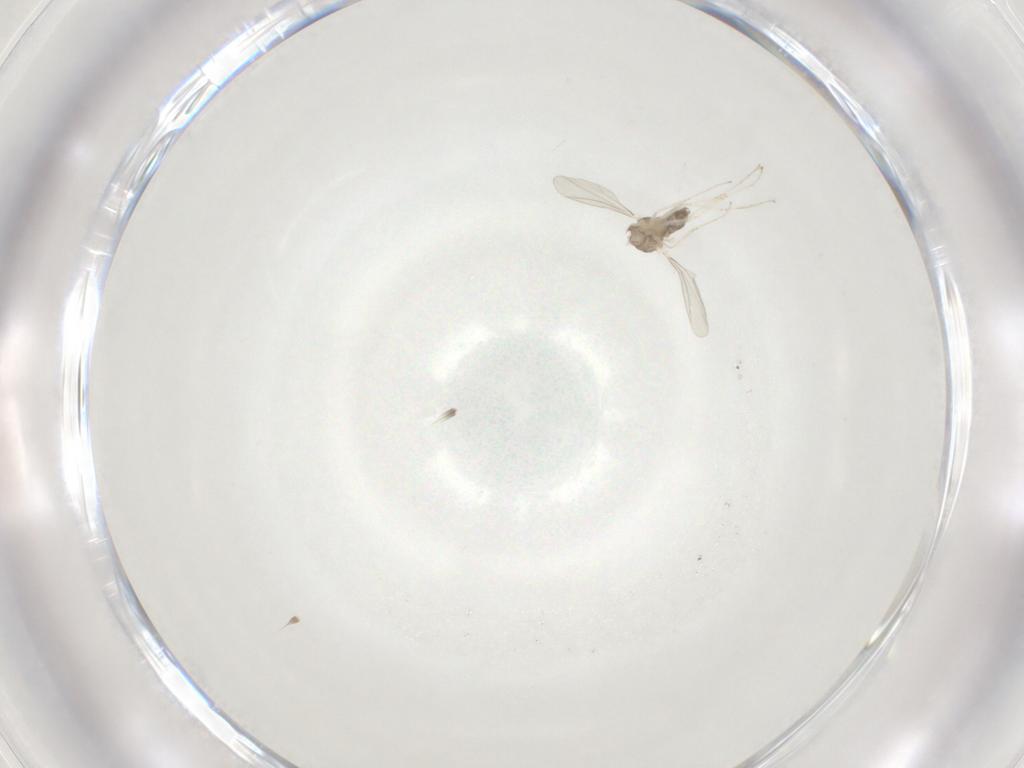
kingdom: Animalia
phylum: Arthropoda
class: Insecta
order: Diptera
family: Cecidomyiidae
